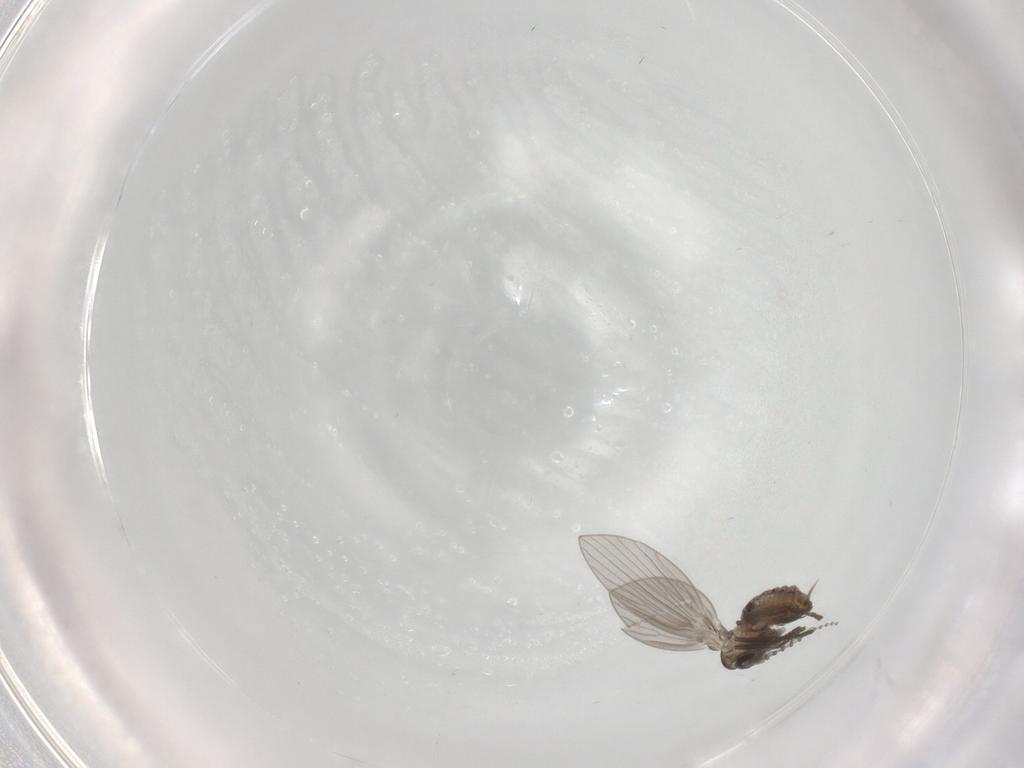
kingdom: Animalia
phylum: Arthropoda
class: Insecta
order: Diptera
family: Psychodidae
